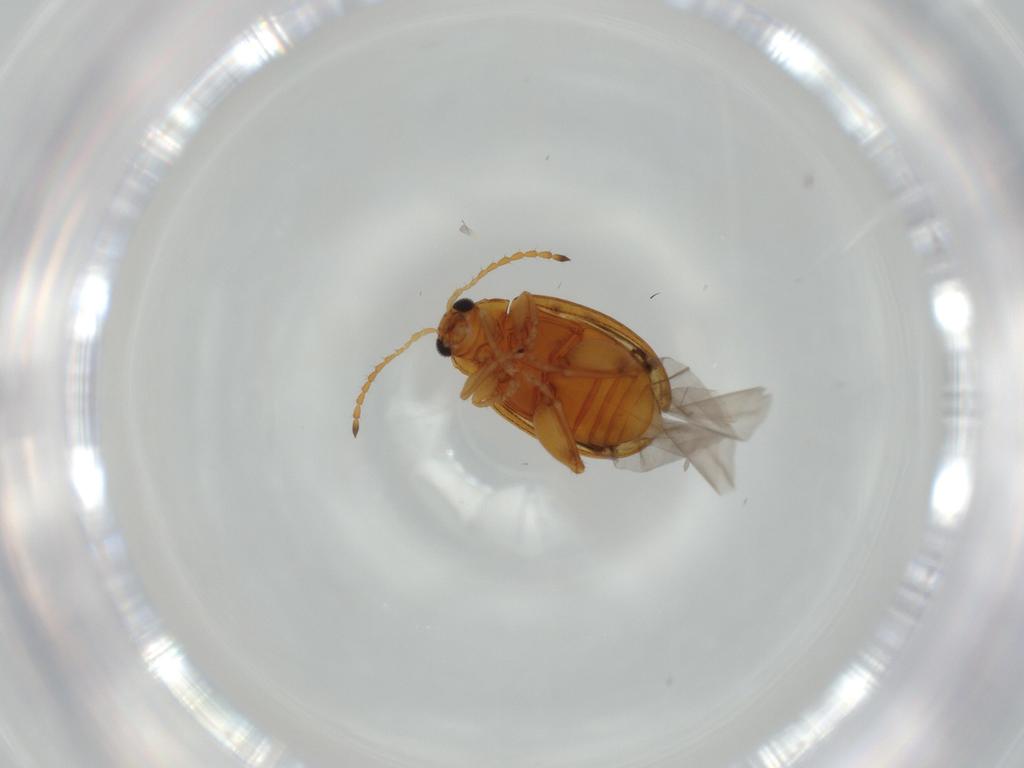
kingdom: Animalia
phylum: Arthropoda
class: Insecta
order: Coleoptera
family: Chrysomelidae
